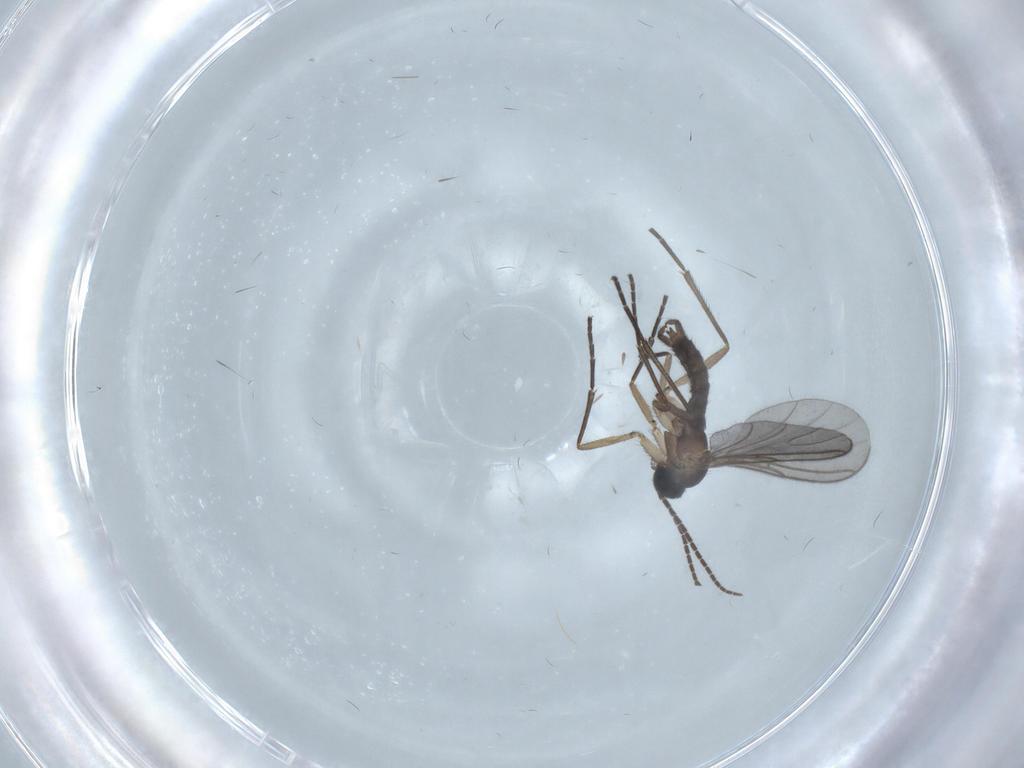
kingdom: Animalia
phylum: Arthropoda
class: Insecta
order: Diptera
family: Sciaridae
